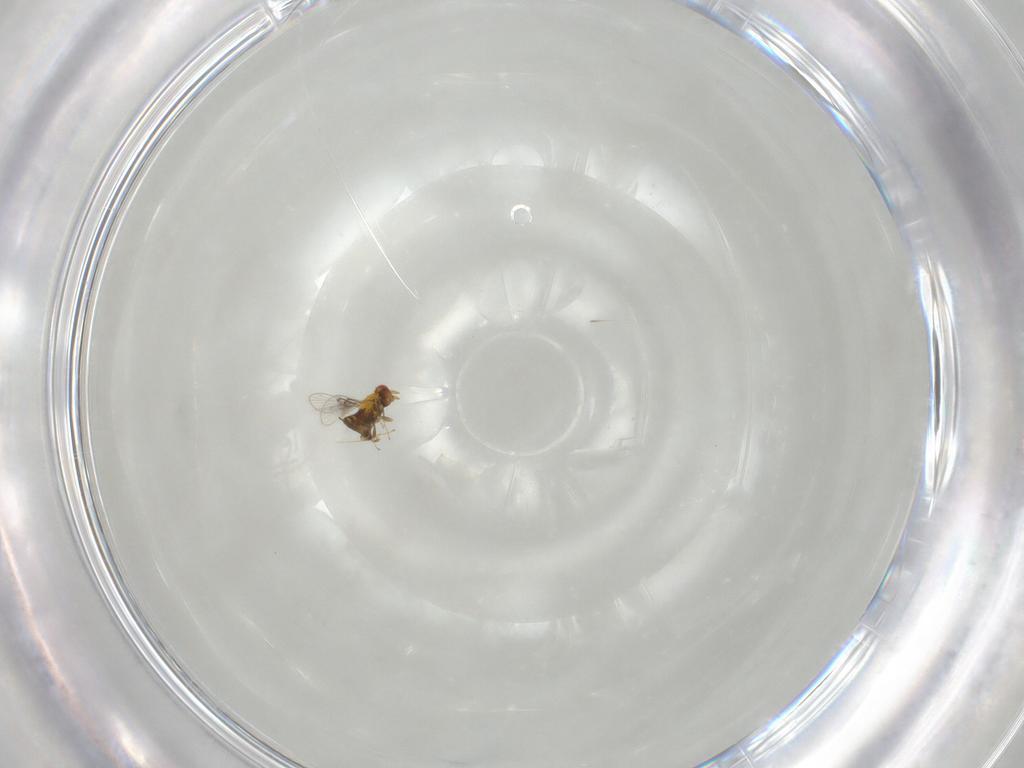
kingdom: Animalia
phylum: Arthropoda
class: Insecta
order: Hymenoptera
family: Trichogrammatidae
